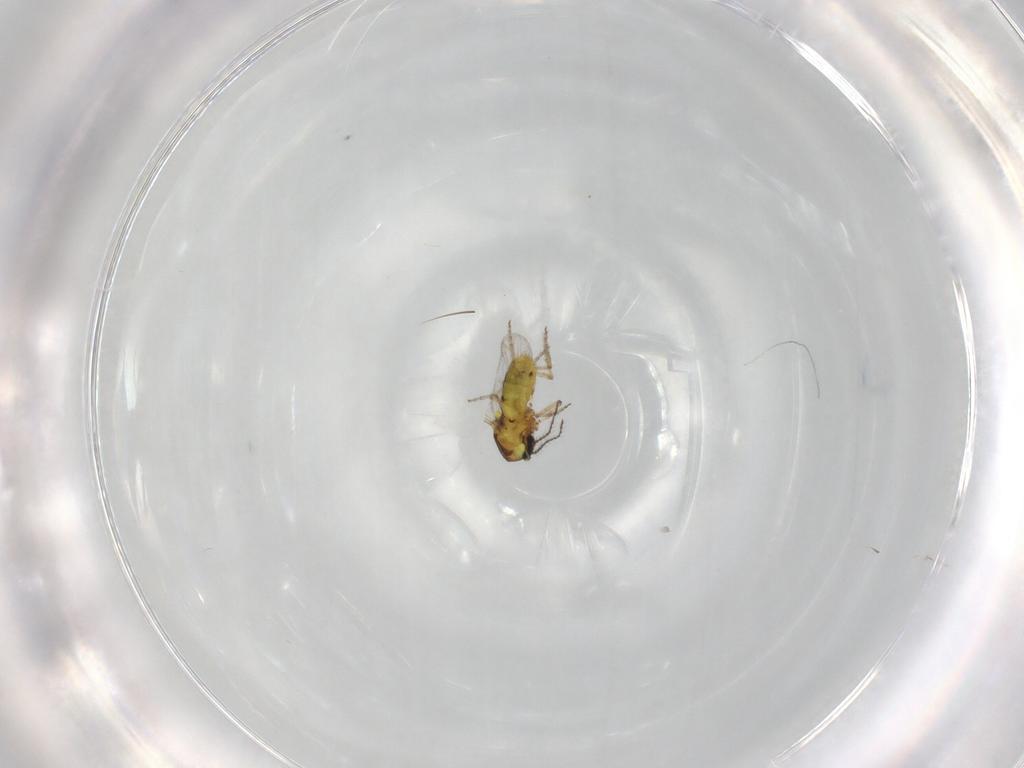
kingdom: Animalia
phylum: Arthropoda
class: Insecta
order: Diptera
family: Ceratopogonidae
